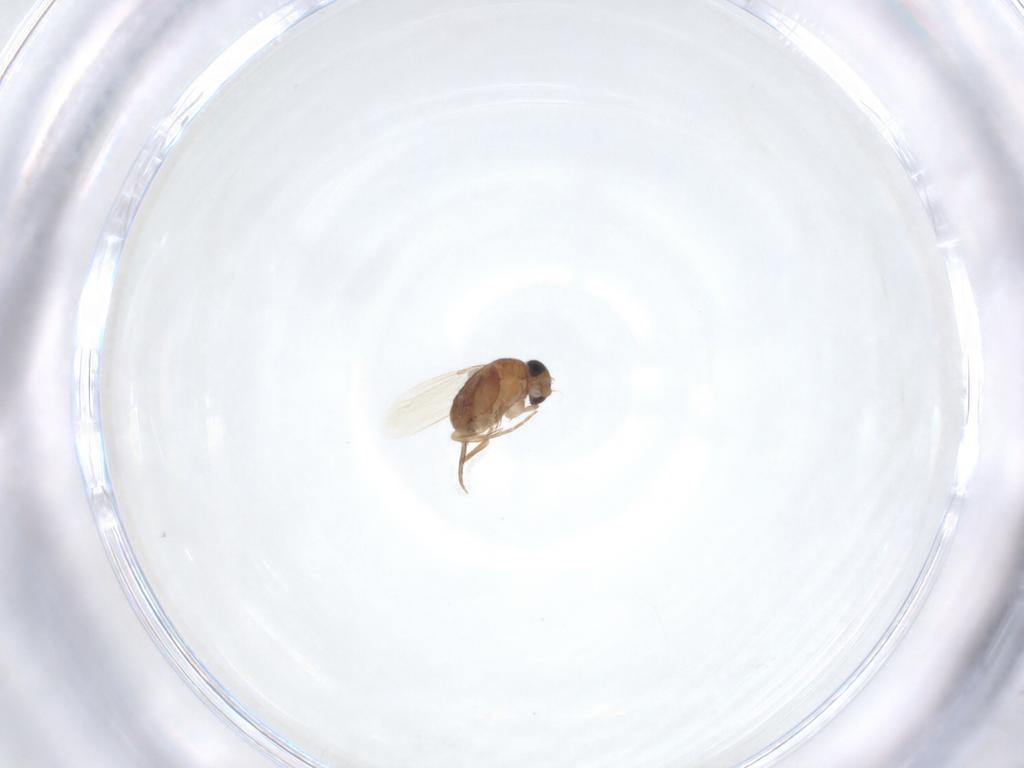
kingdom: Animalia
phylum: Arthropoda
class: Insecta
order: Diptera
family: Phoridae
